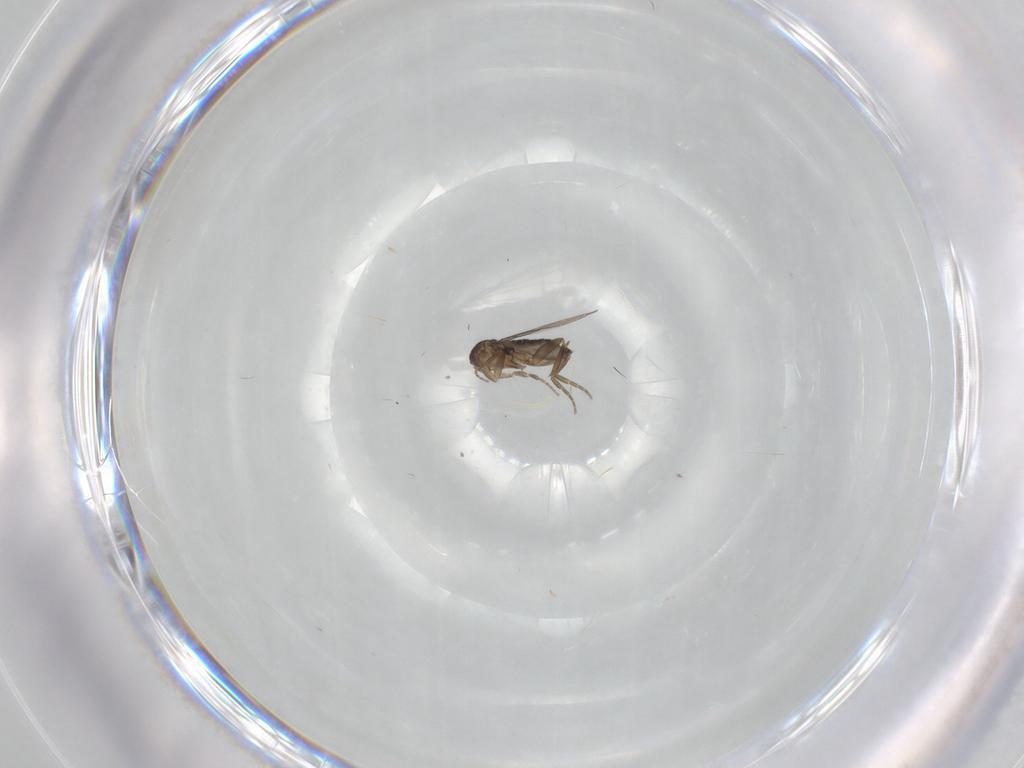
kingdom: Animalia
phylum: Arthropoda
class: Insecta
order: Diptera
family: Phoridae
